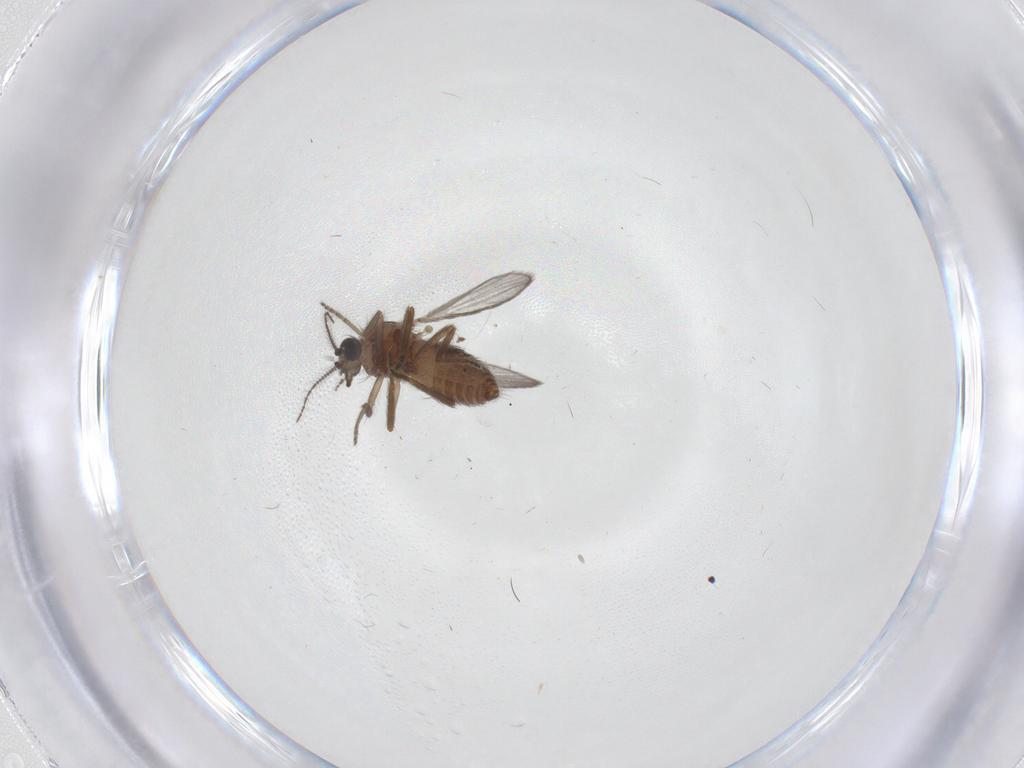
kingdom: Animalia
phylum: Arthropoda
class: Insecta
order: Diptera
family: Ceratopogonidae
